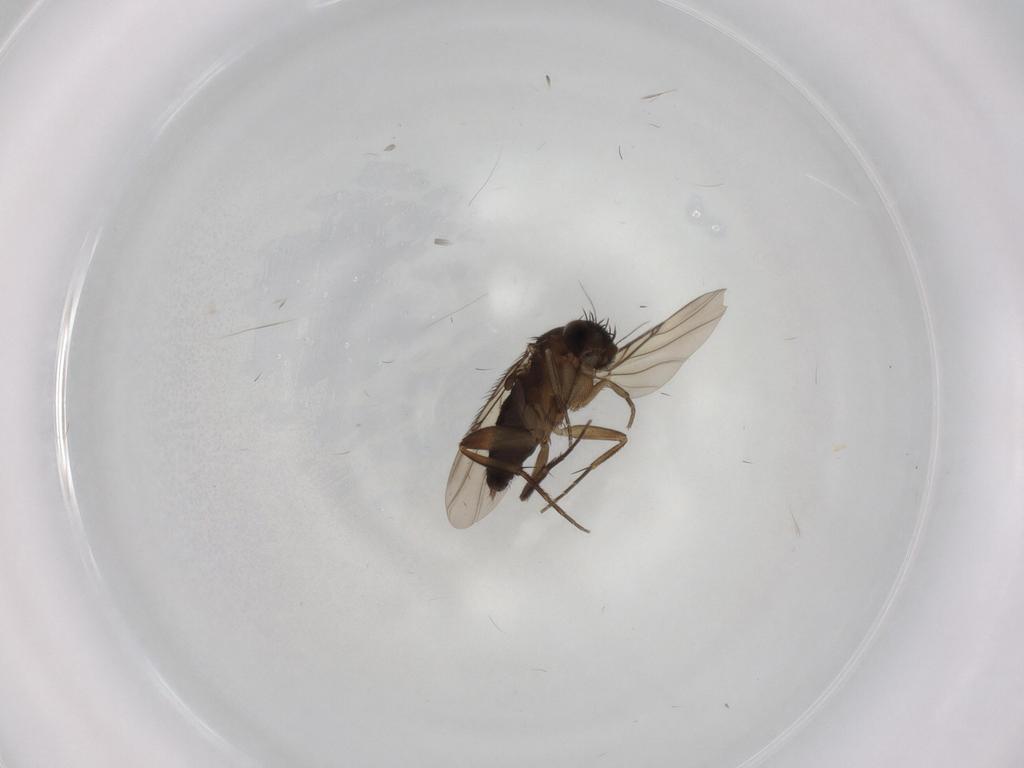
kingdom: Animalia
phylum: Arthropoda
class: Insecta
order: Diptera
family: Phoridae
